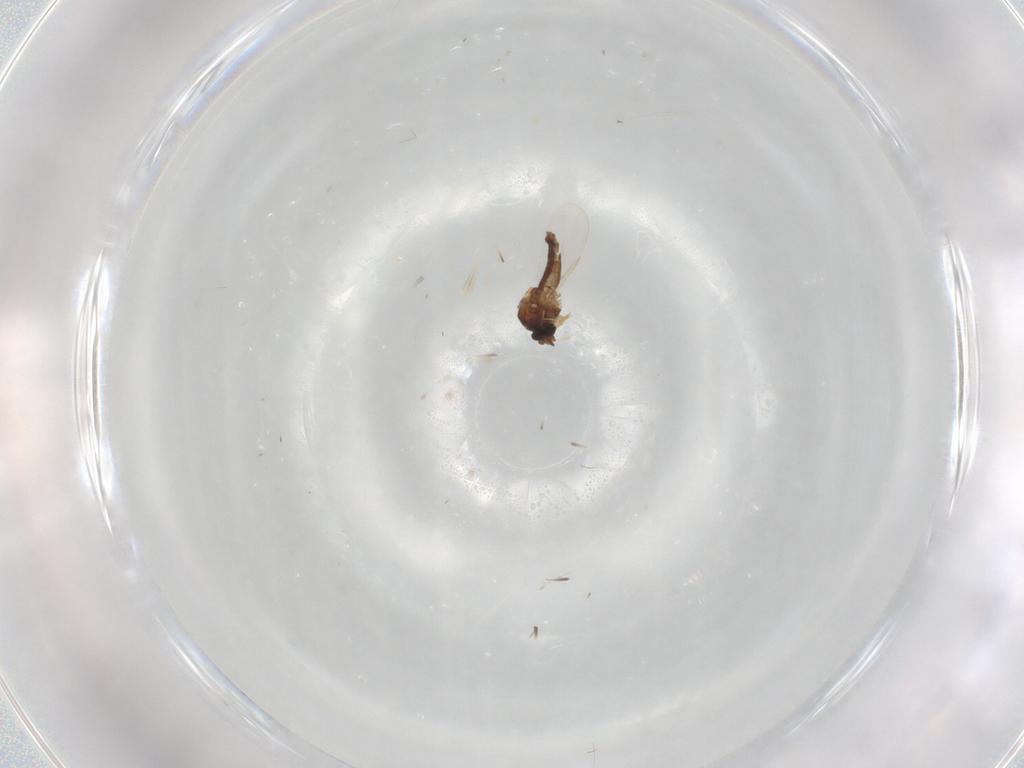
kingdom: Animalia
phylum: Arthropoda
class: Insecta
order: Diptera
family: Ceratopogonidae
